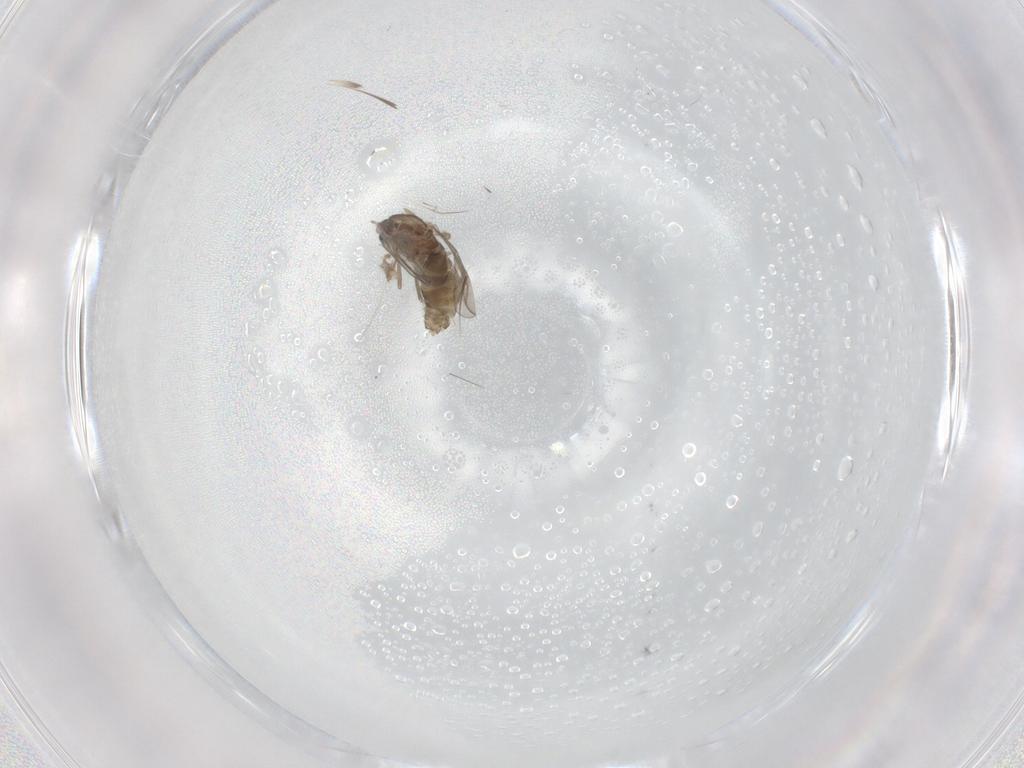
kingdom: Animalia
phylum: Arthropoda
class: Insecta
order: Diptera
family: Chironomidae
